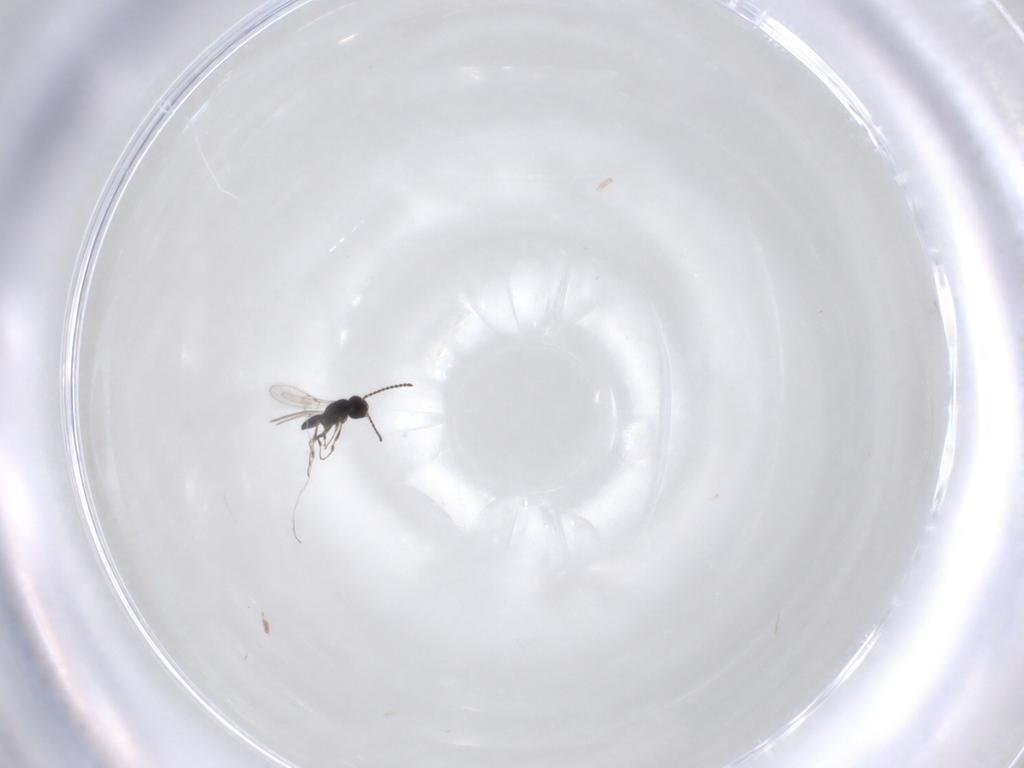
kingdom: Animalia
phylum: Arthropoda
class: Insecta
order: Hymenoptera
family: Scelionidae
